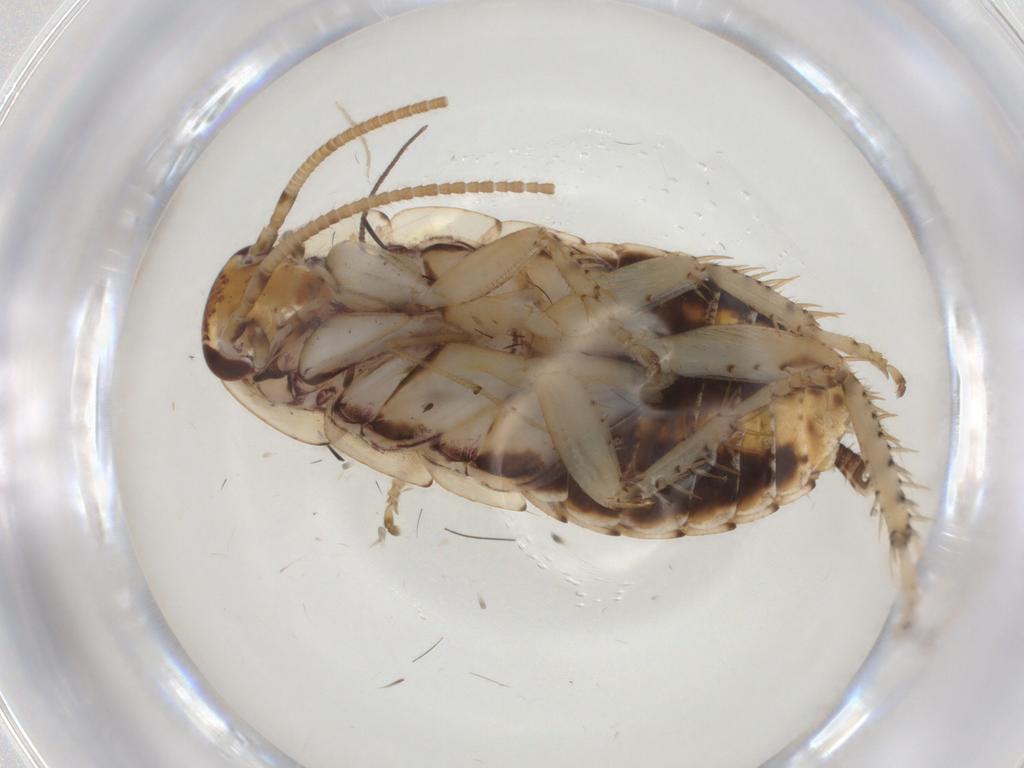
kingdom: Animalia
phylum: Arthropoda
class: Insecta
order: Blattodea
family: Blaberidae
